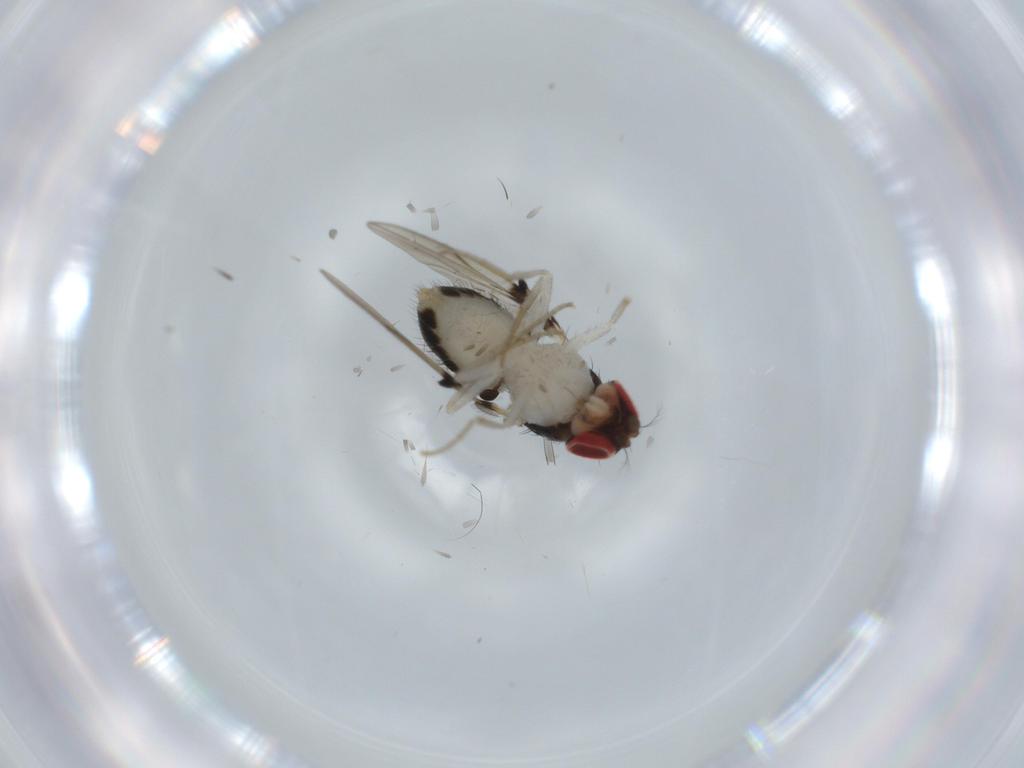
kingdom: Animalia
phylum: Arthropoda
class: Insecta
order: Diptera
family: Drosophilidae
